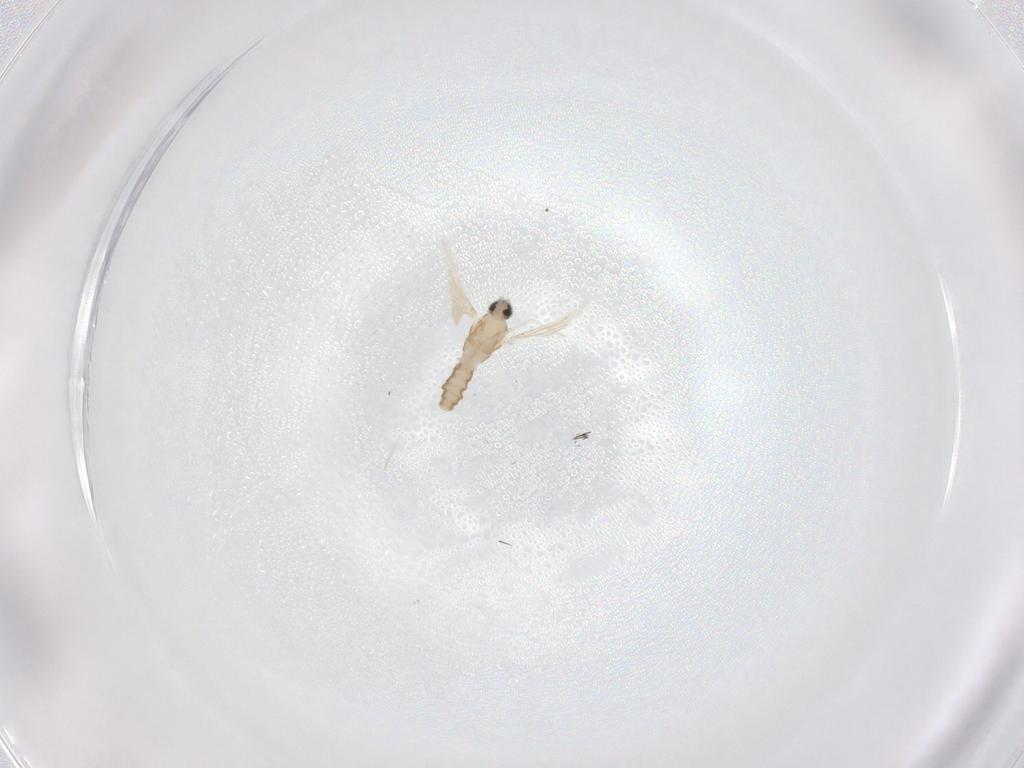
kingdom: Animalia
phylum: Arthropoda
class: Insecta
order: Diptera
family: Cecidomyiidae
